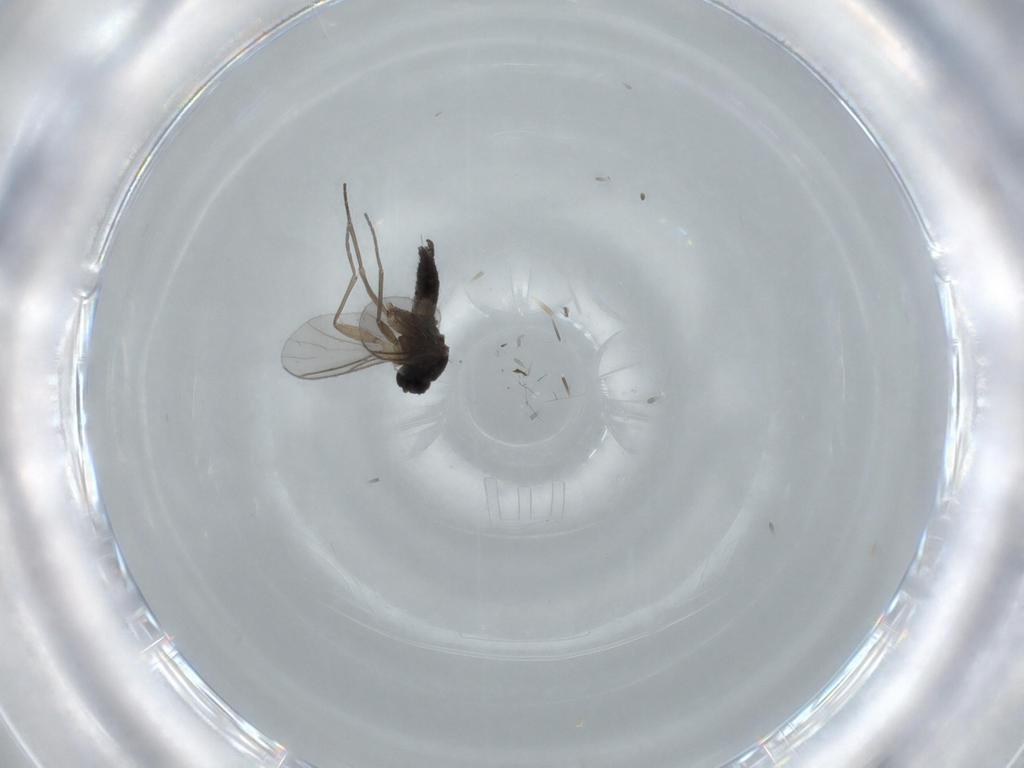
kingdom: Animalia
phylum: Arthropoda
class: Insecta
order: Diptera
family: Sciaridae
